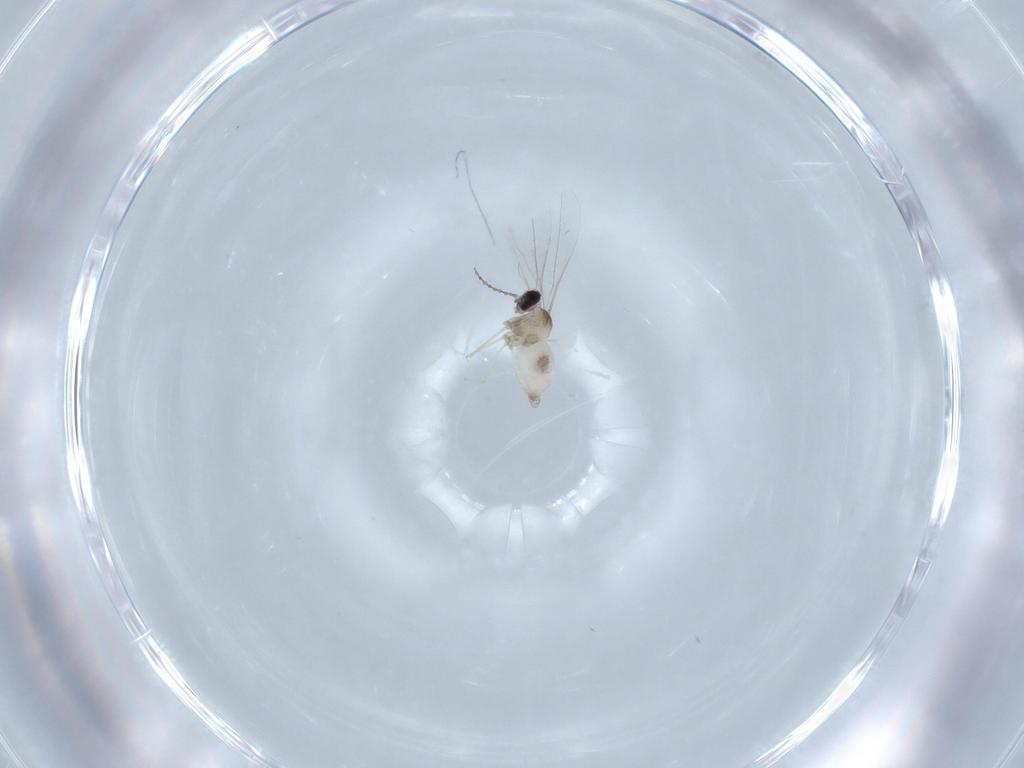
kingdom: Animalia
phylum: Arthropoda
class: Insecta
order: Diptera
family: Cecidomyiidae
